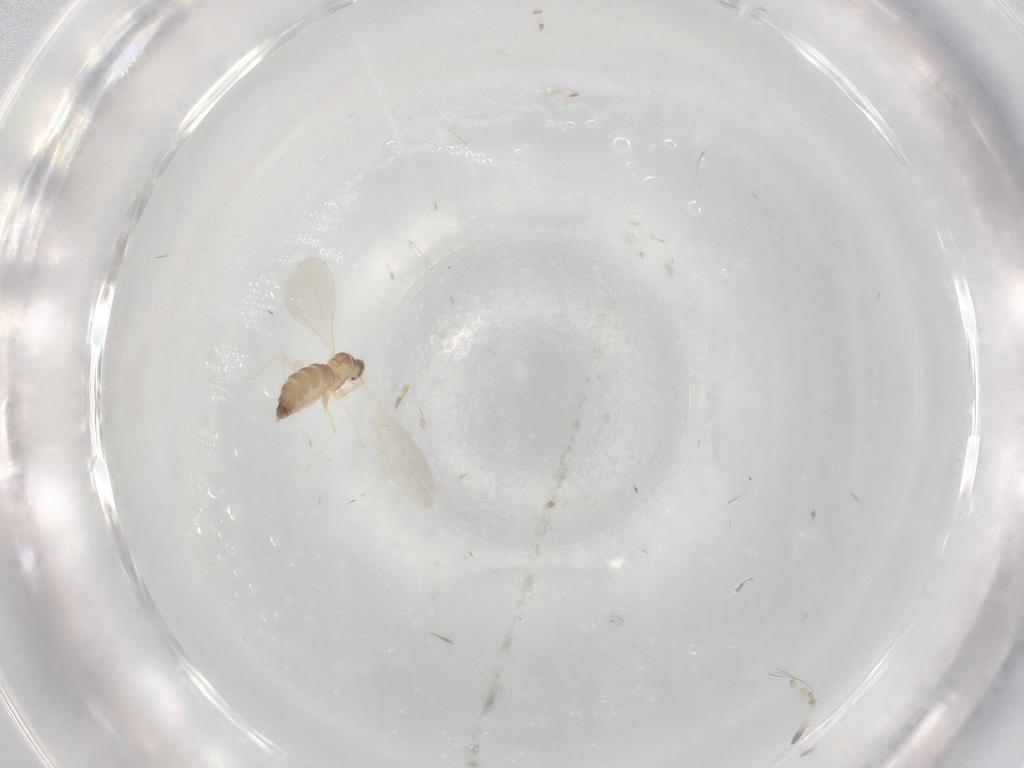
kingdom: Animalia
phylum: Arthropoda
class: Insecta
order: Diptera
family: Cecidomyiidae
